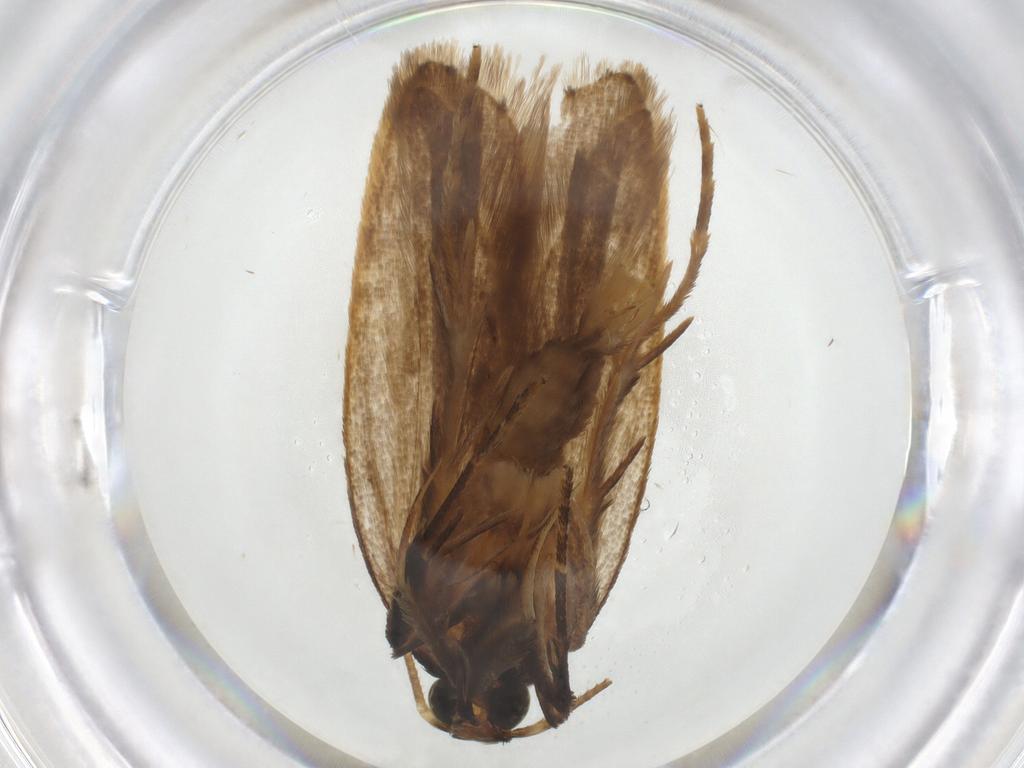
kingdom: Animalia
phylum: Arthropoda
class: Insecta
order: Lepidoptera
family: Gelechiidae
